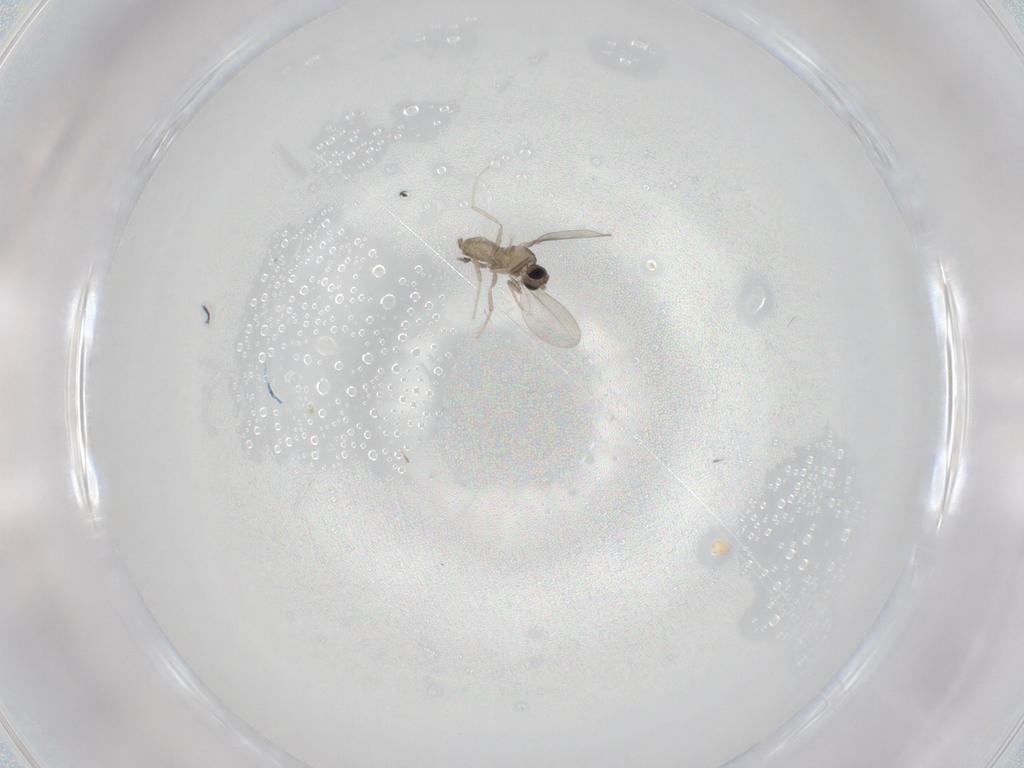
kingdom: Animalia
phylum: Arthropoda
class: Insecta
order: Diptera
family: Cecidomyiidae
